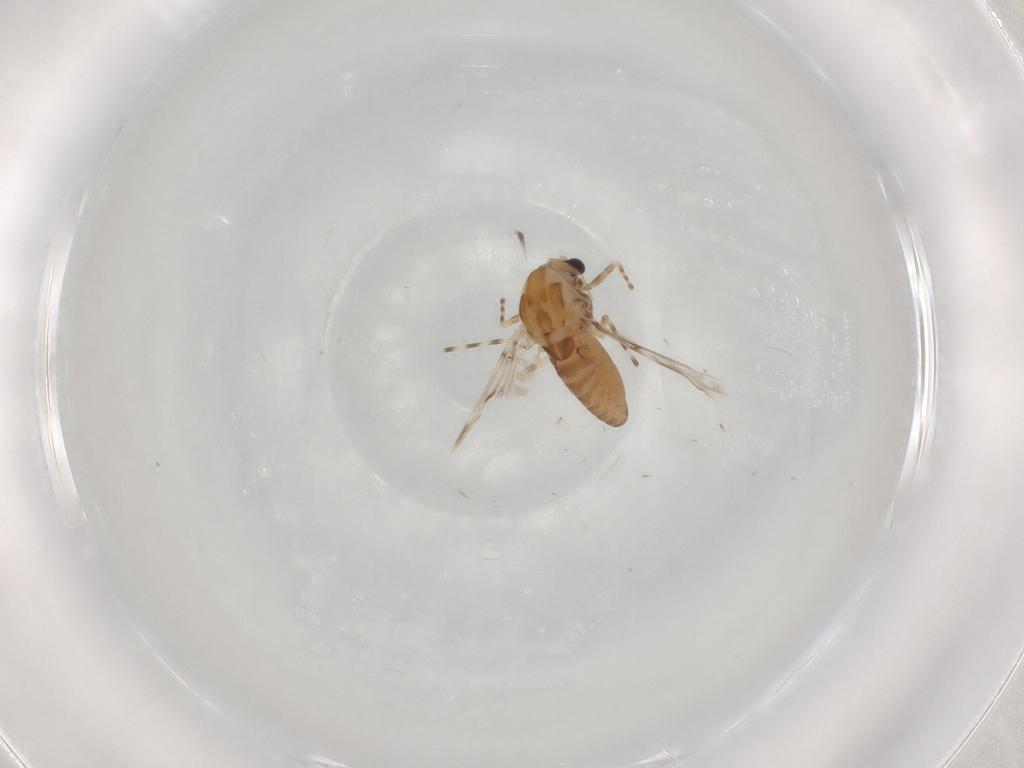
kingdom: Animalia
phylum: Arthropoda
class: Insecta
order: Diptera
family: Chironomidae
